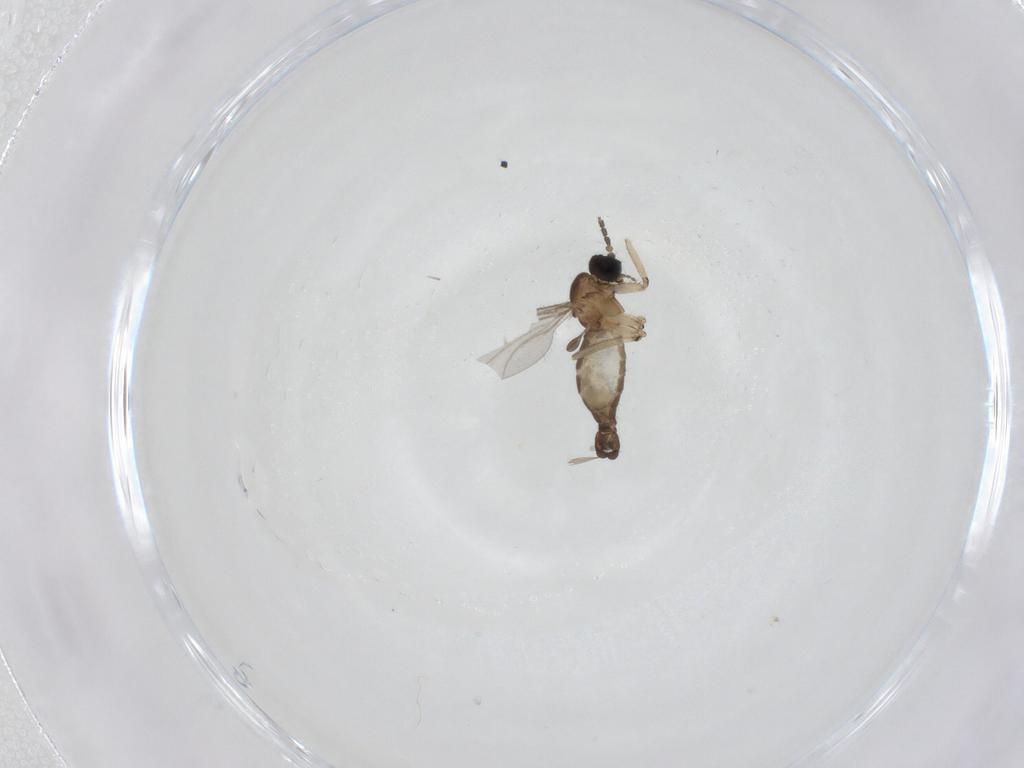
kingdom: Animalia
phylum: Arthropoda
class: Insecta
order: Diptera
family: Sciaridae
